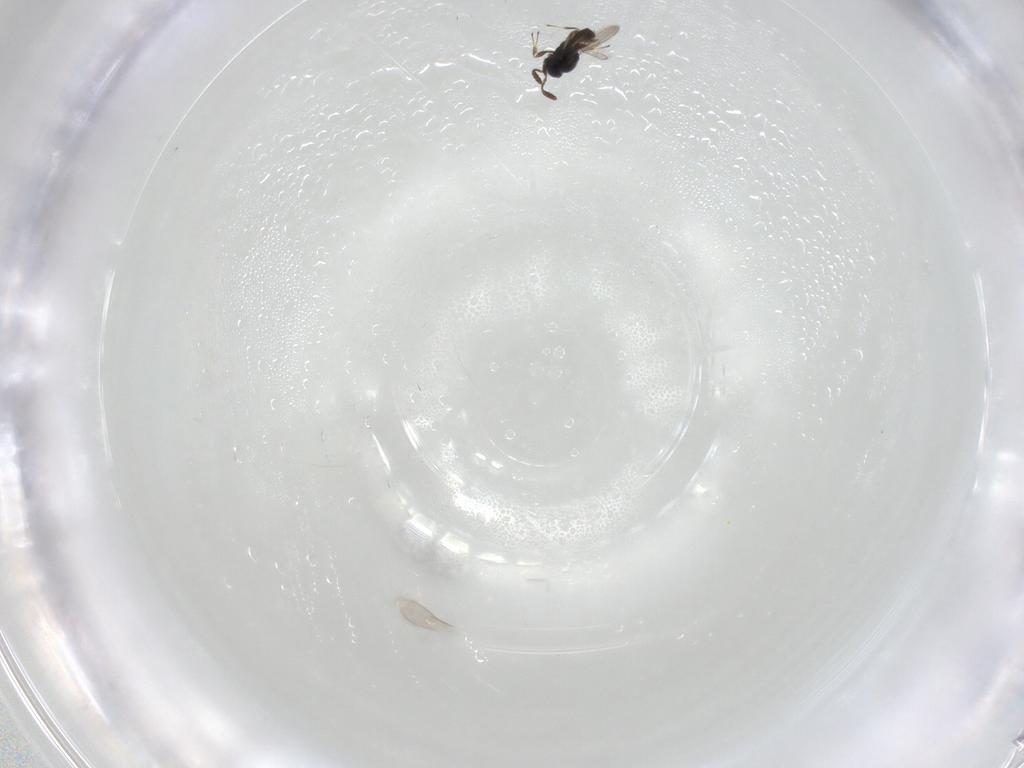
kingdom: Animalia
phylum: Arthropoda
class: Insecta
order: Hymenoptera
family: Scelionidae
